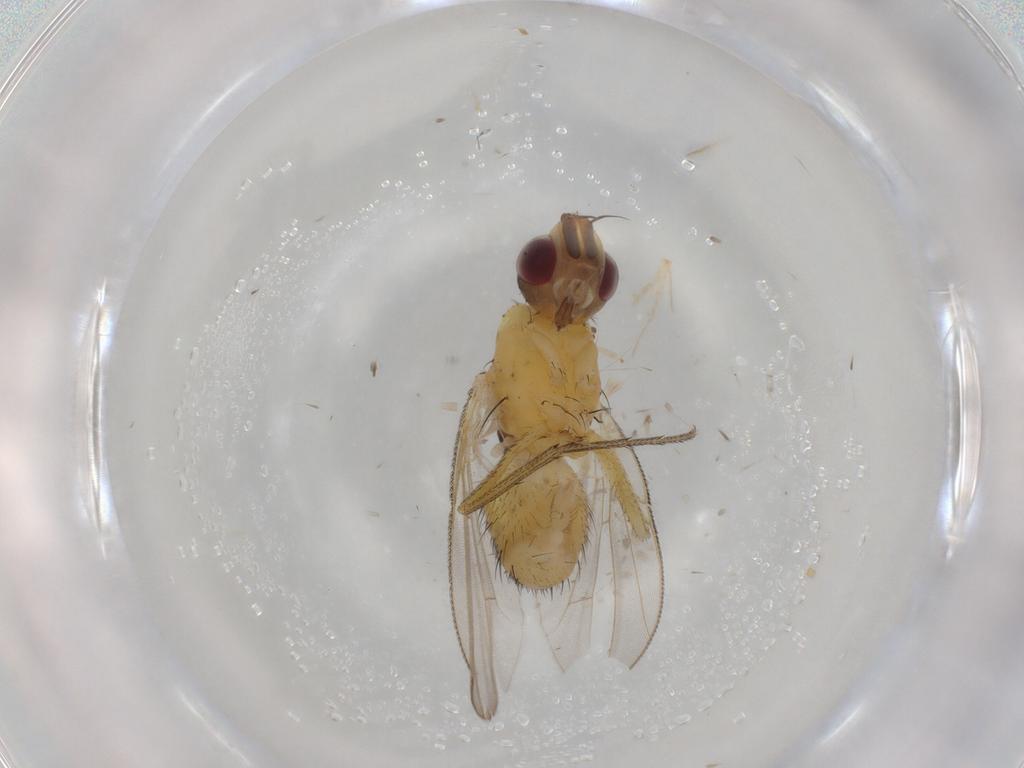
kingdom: Animalia
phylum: Arthropoda
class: Insecta
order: Diptera
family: Muscidae
